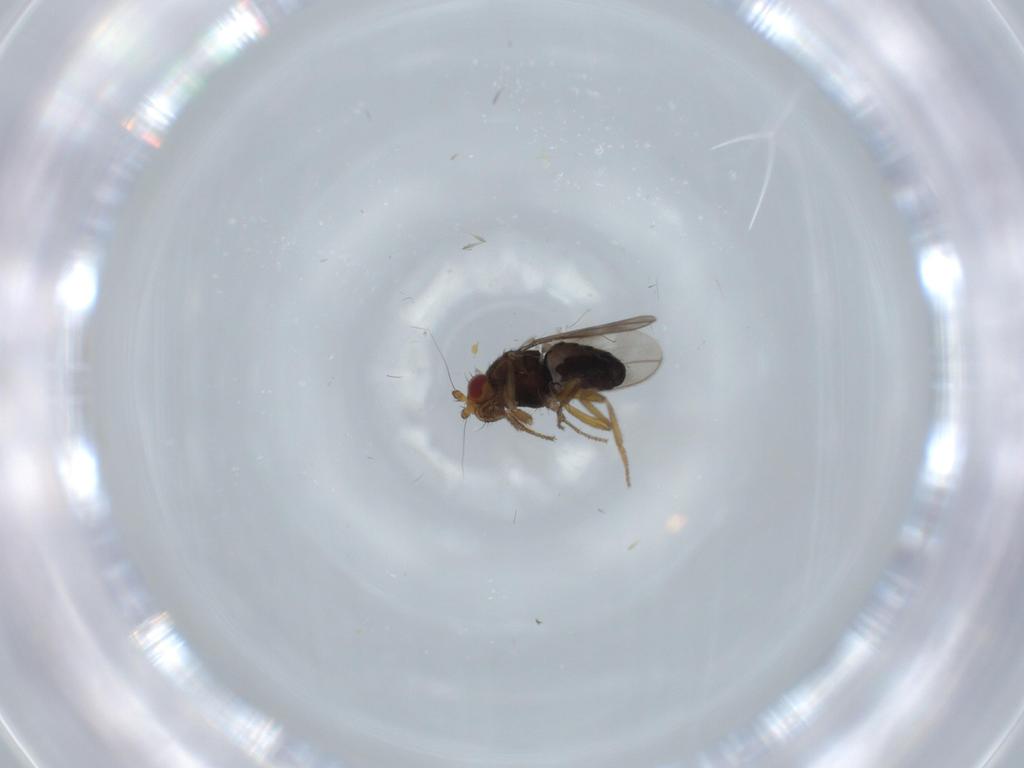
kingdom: Animalia
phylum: Arthropoda
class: Insecta
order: Diptera
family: Sphaeroceridae
